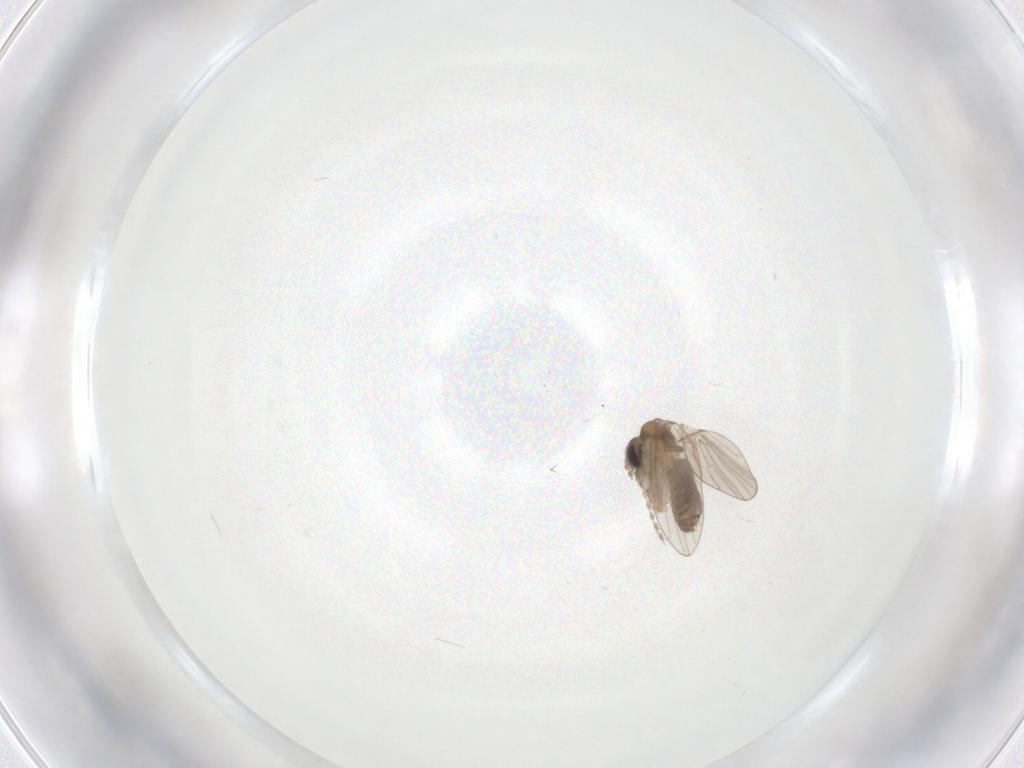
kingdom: Animalia
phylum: Arthropoda
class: Insecta
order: Diptera
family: Psychodidae
